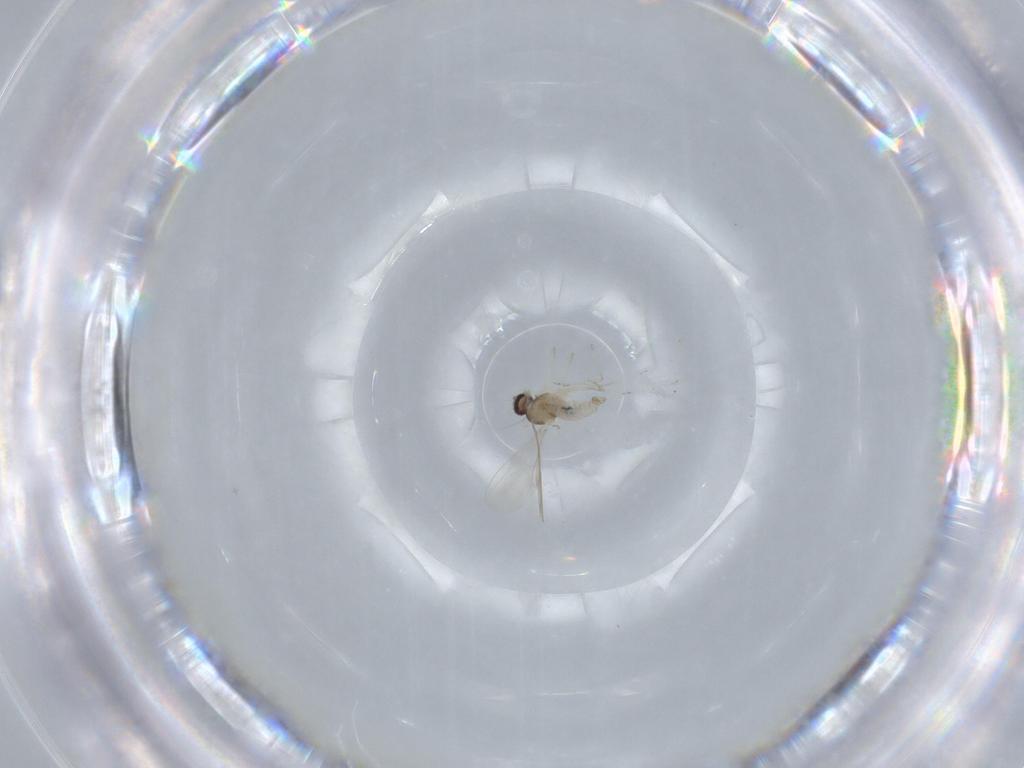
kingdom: Animalia
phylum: Arthropoda
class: Insecta
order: Diptera
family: Cecidomyiidae
